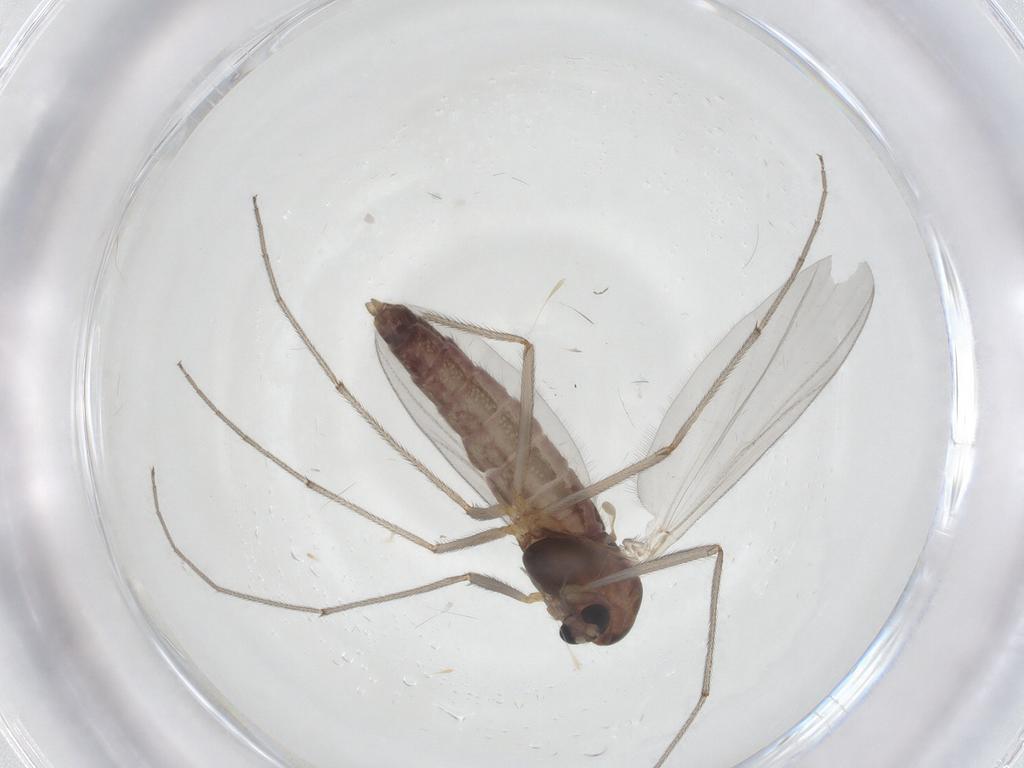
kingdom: Animalia
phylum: Arthropoda
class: Insecta
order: Diptera
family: Chironomidae
